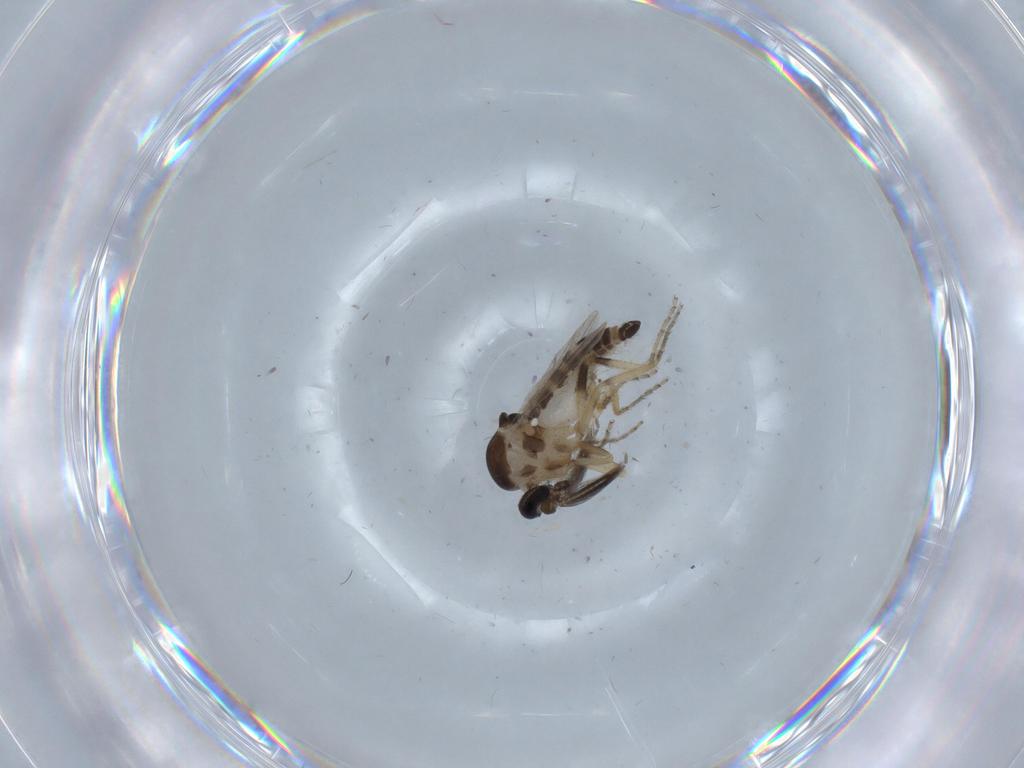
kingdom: Animalia
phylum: Arthropoda
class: Insecta
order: Diptera
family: Ceratopogonidae
